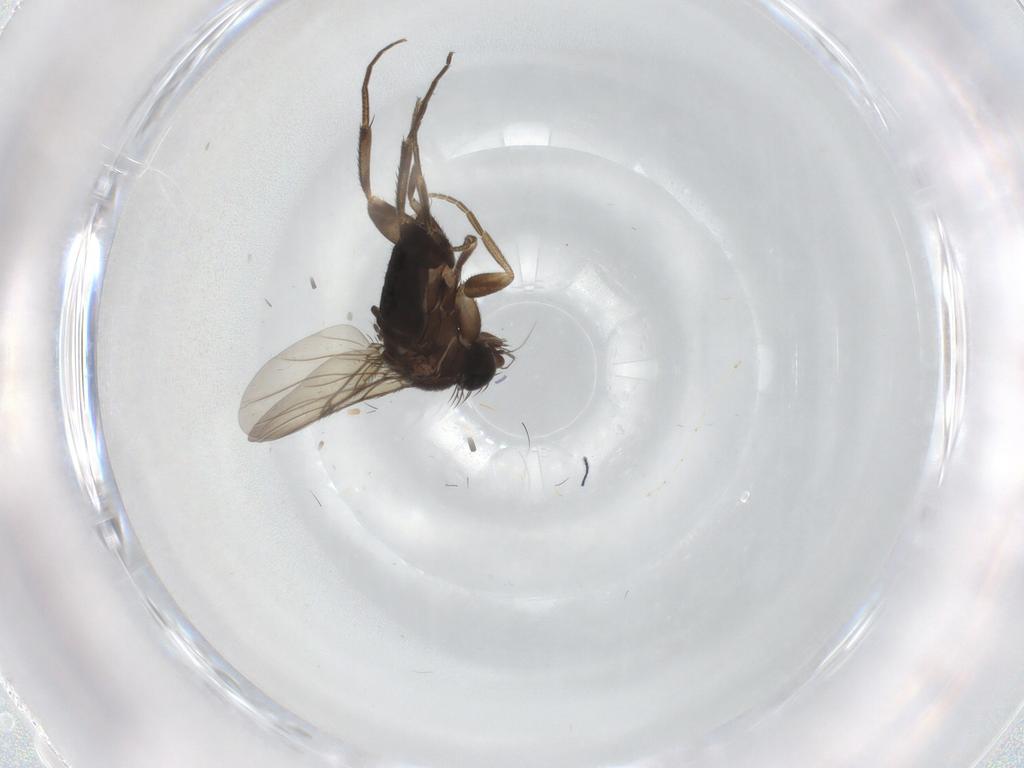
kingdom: Animalia
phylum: Arthropoda
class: Insecta
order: Diptera
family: Phoridae
